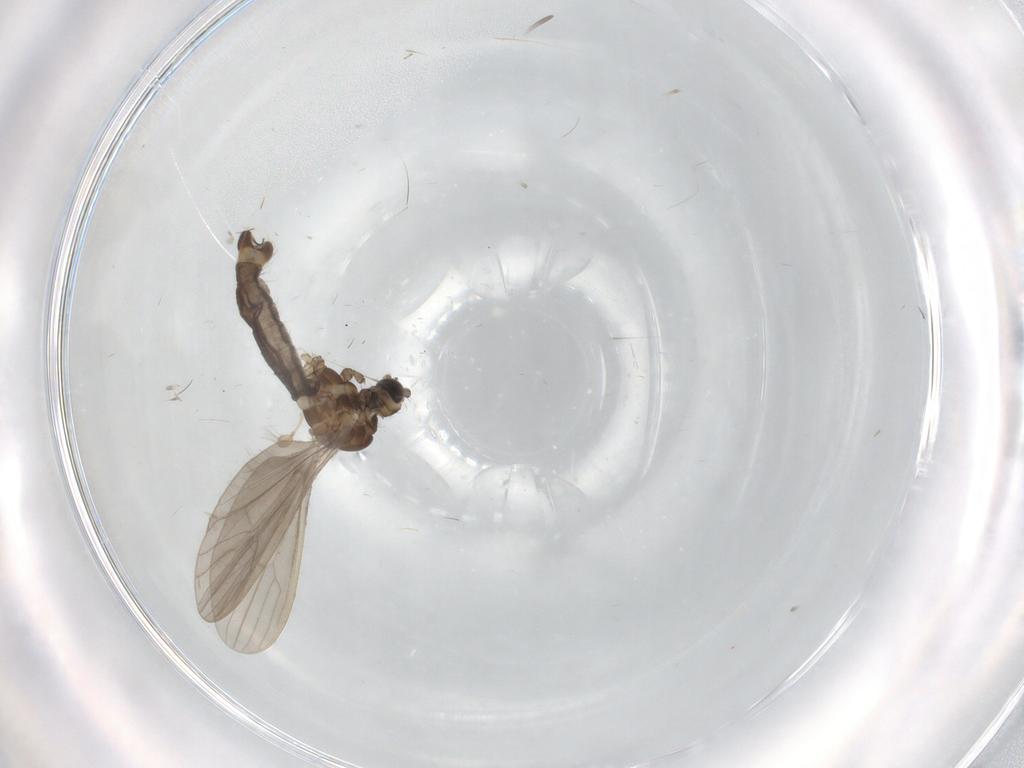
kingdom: Animalia
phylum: Arthropoda
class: Insecta
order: Diptera
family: Limoniidae
